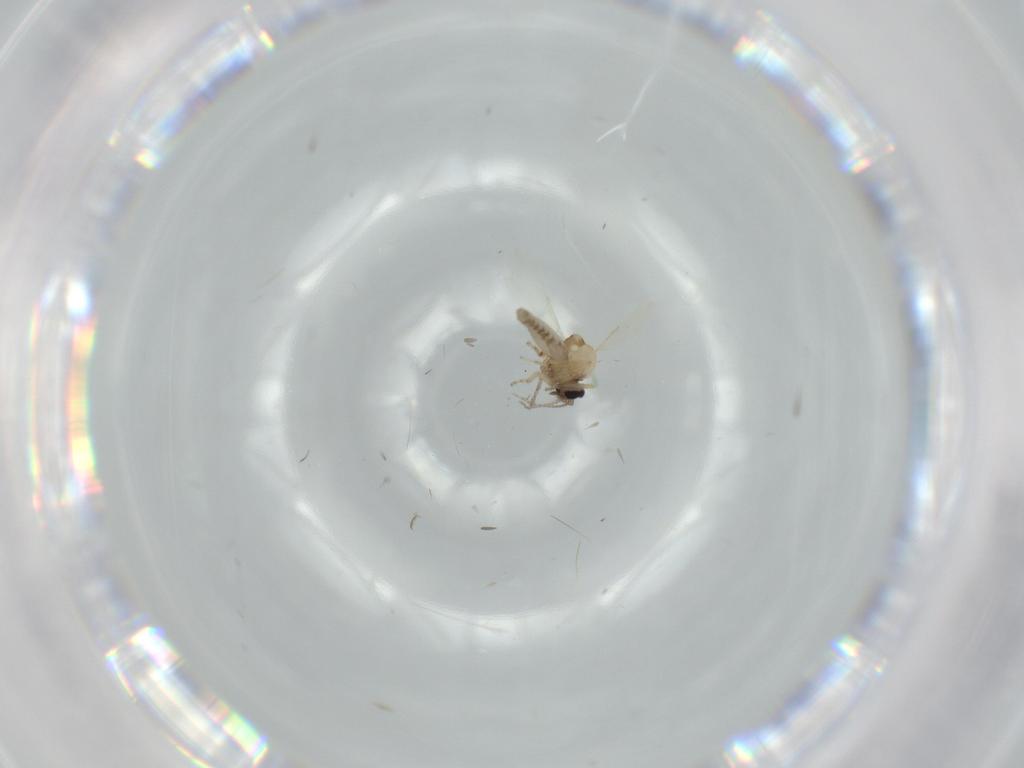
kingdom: Animalia
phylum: Arthropoda
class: Insecta
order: Diptera
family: Ceratopogonidae
